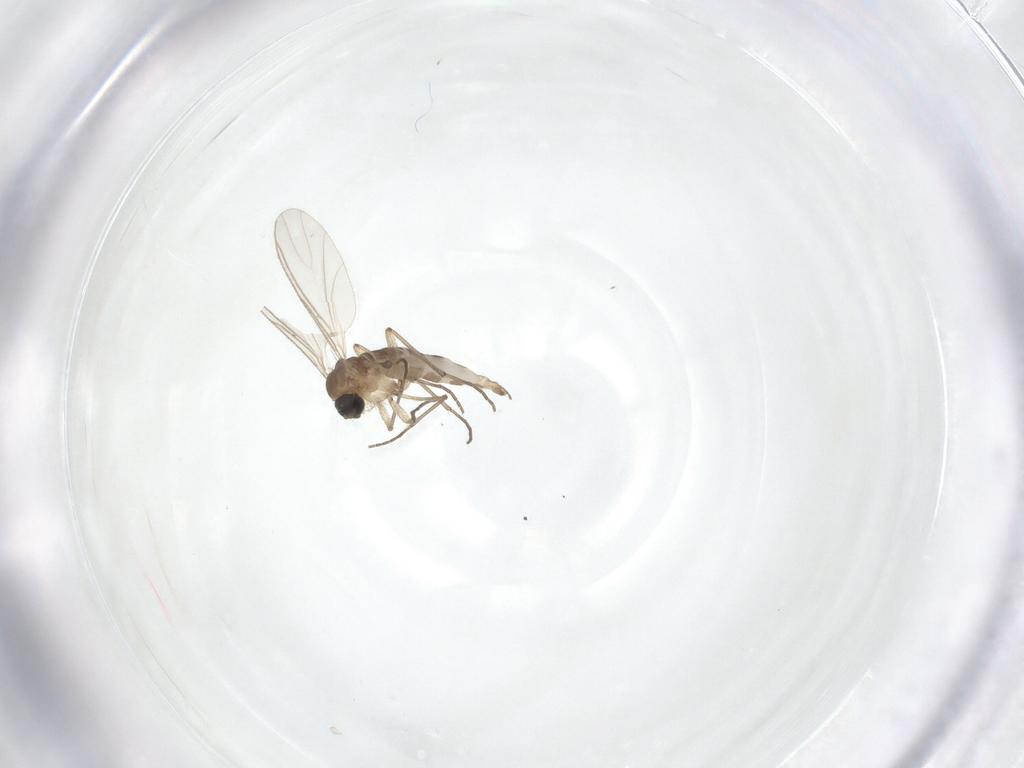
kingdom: Animalia
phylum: Arthropoda
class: Insecta
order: Diptera
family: Sciaridae
